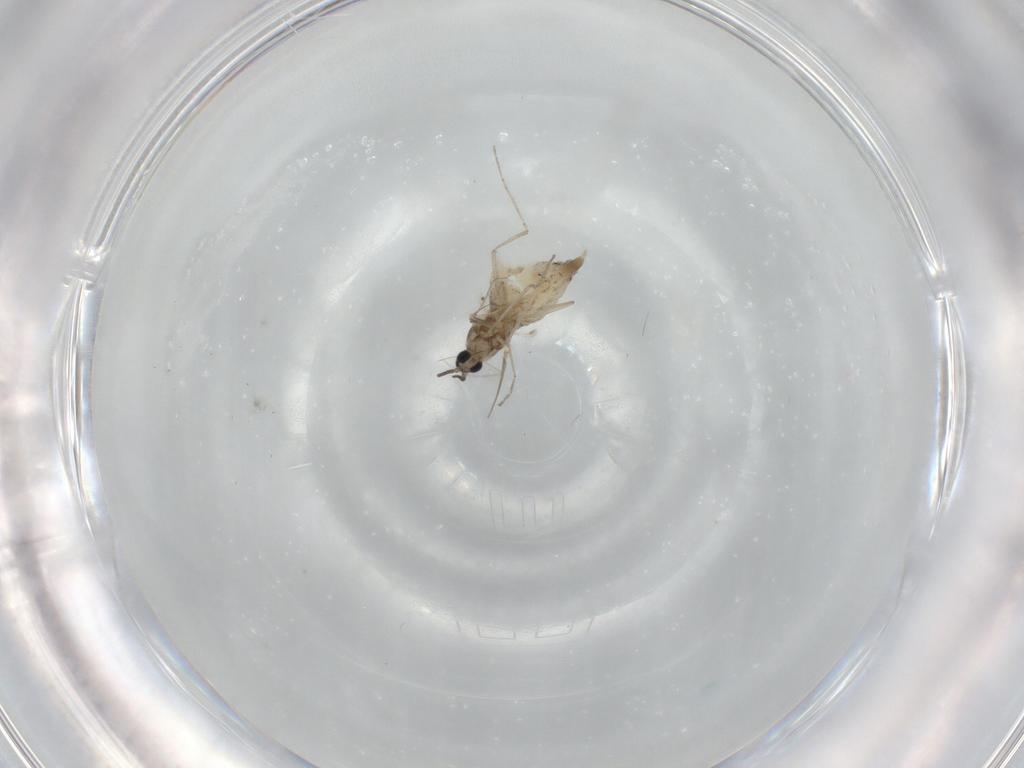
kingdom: Animalia
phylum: Arthropoda
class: Insecta
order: Diptera
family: Cecidomyiidae
